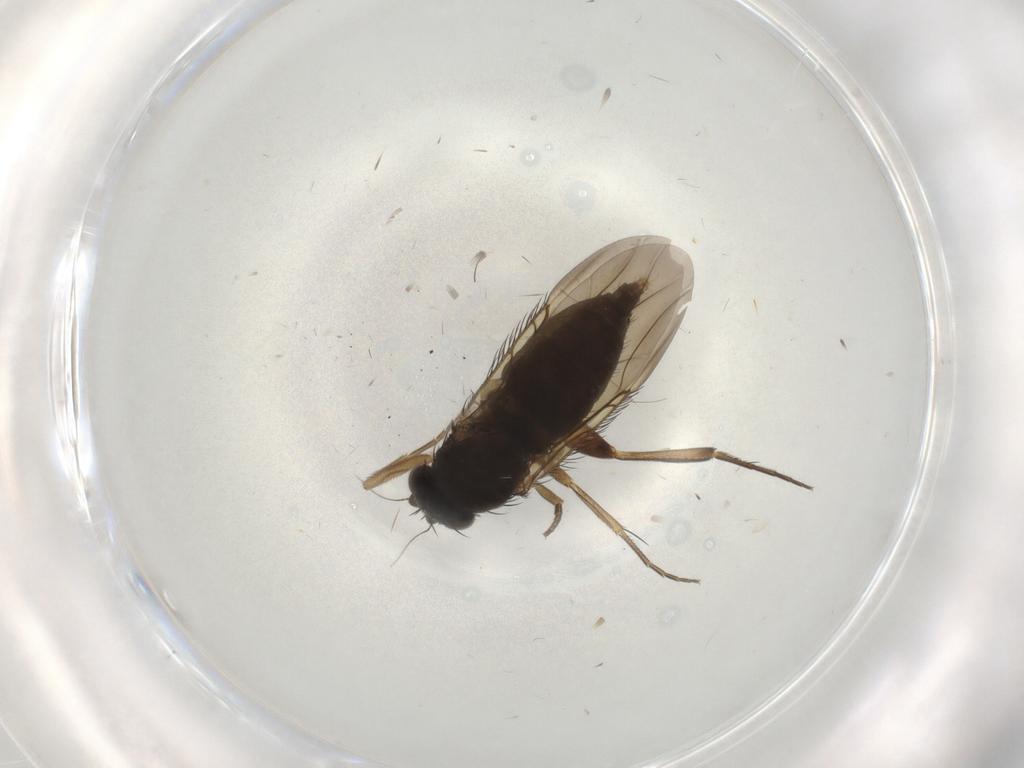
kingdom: Animalia
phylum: Arthropoda
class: Insecta
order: Diptera
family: Phoridae
